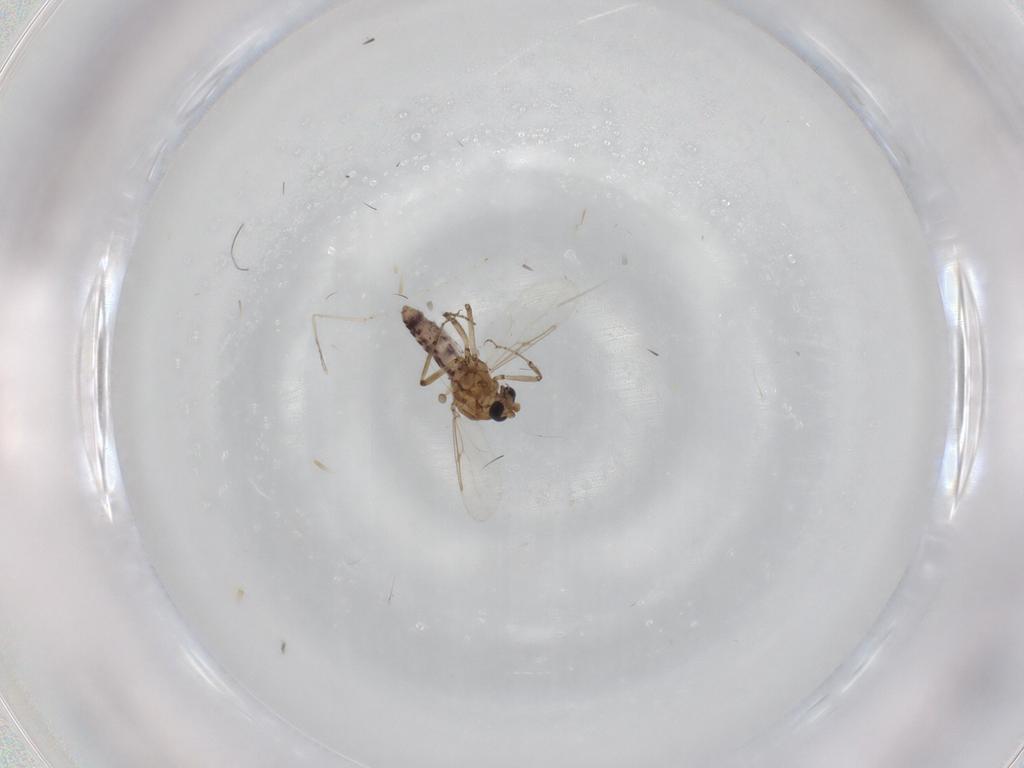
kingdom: Animalia
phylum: Arthropoda
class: Insecta
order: Diptera
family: Ceratopogonidae
